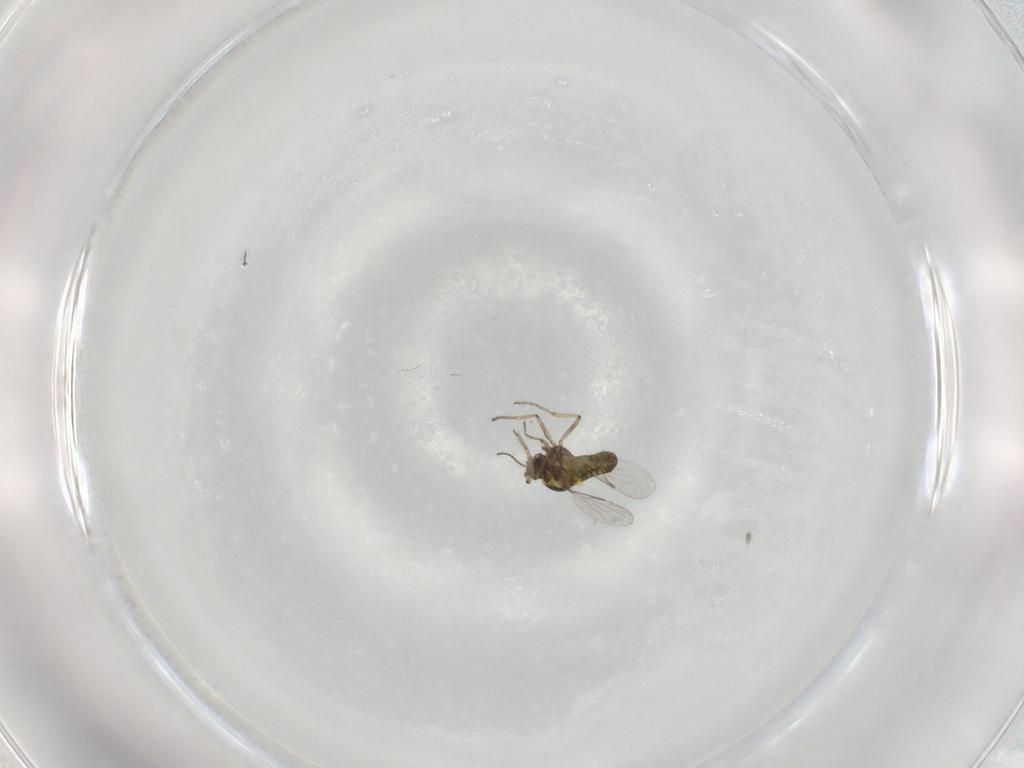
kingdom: Animalia
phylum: Arthropoda
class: Insecta
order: Diptera
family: Ceratopogonidae
